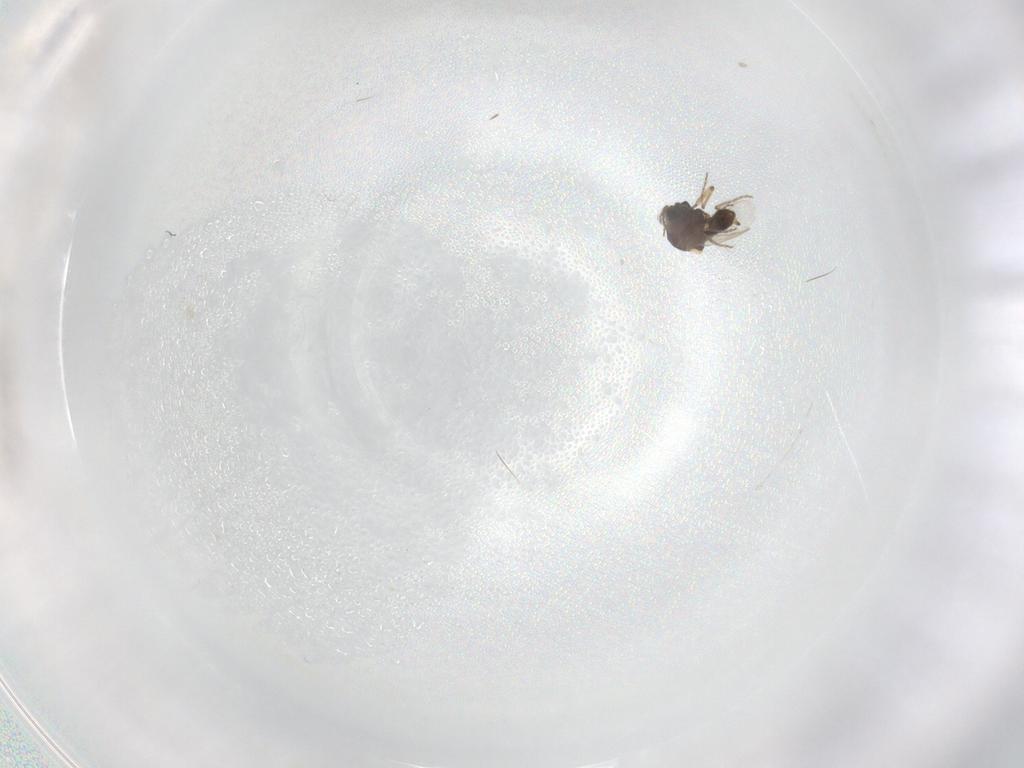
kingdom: Animalia
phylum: Arthropoda
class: Insecta
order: Diptera
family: Ceratopogonidae
